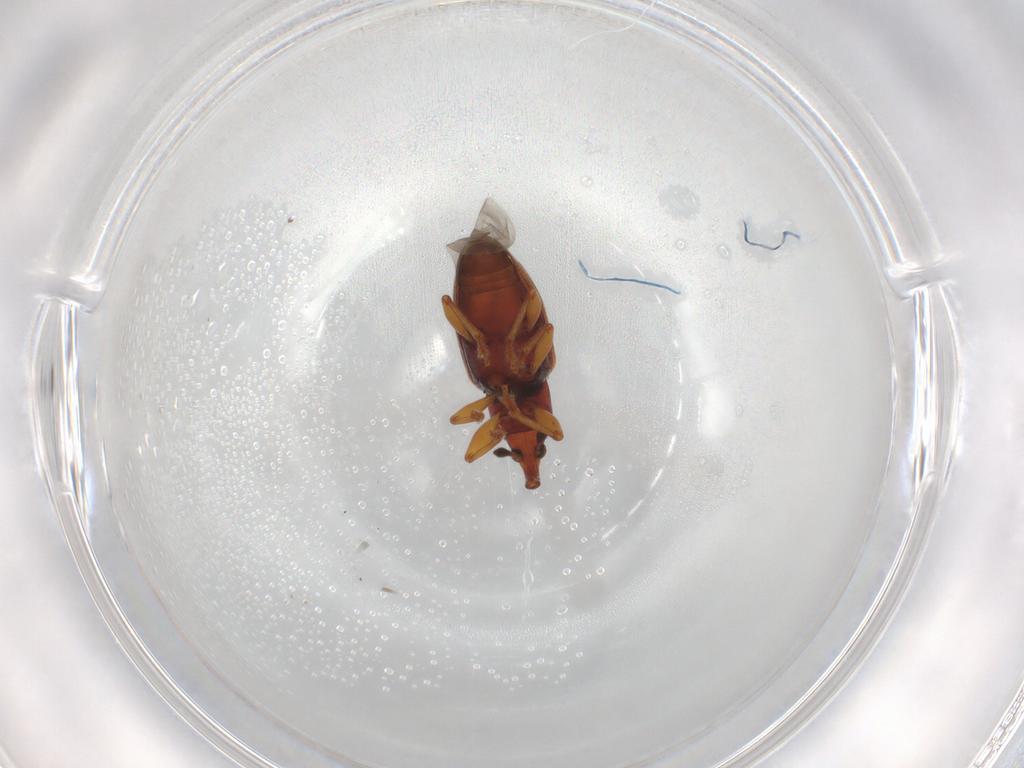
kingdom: Animalia
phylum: Arthropoda
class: Insecta
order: Coleoptera
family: Curculionidae
